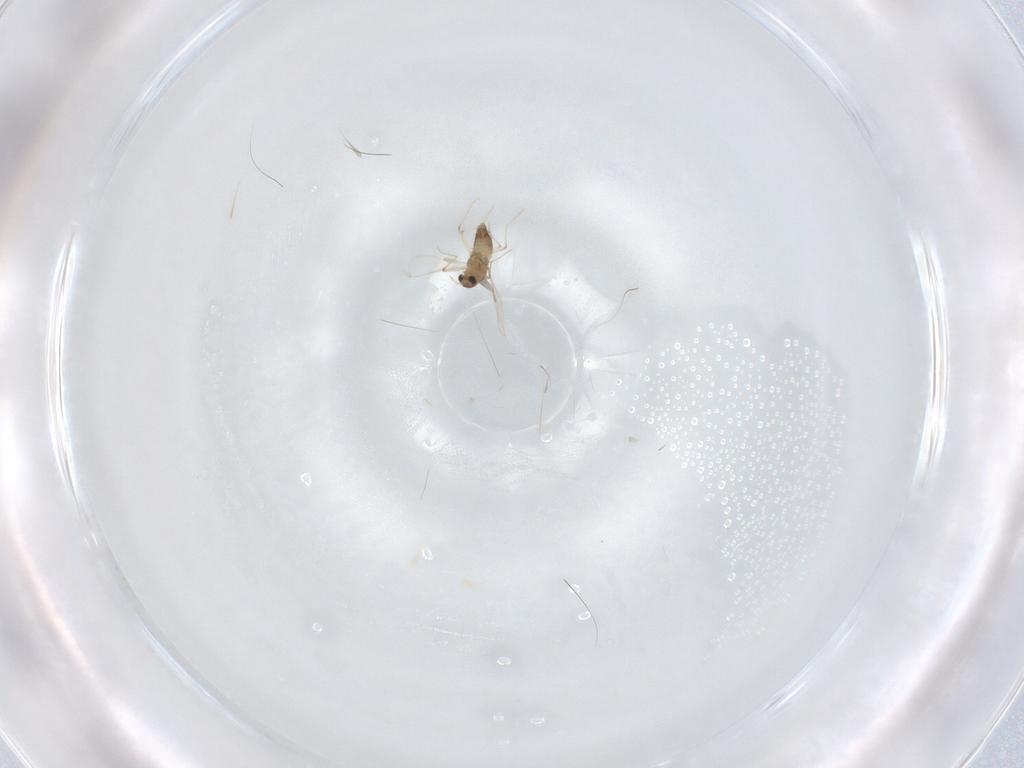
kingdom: Animalia
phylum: Arthropoda
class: Insecta
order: Diptera
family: Chironomidae
